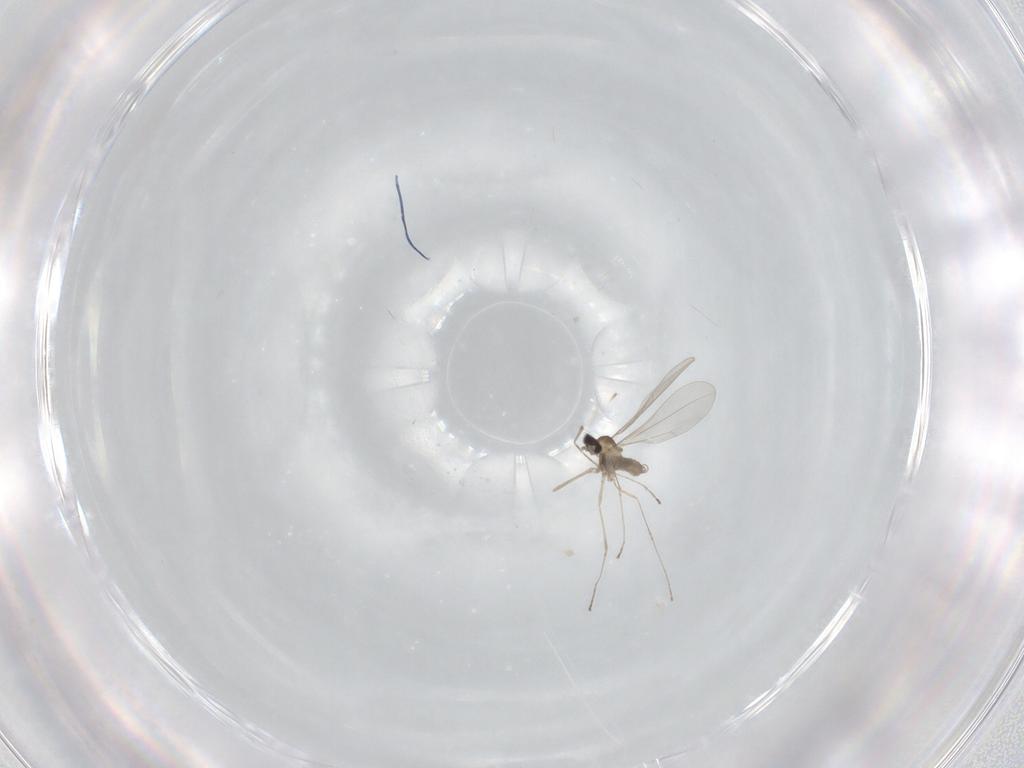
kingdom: Animalia
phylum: Arthropoda
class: Insecta
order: Diptera
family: Cecidomyiidae
